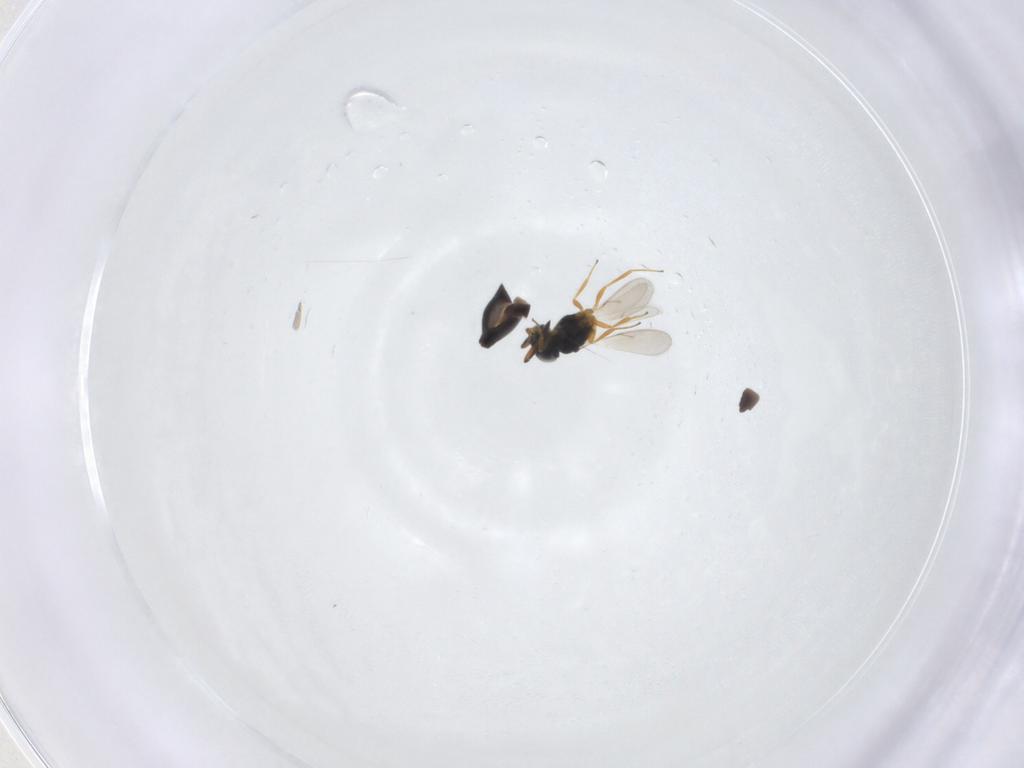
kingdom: Animalia
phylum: Arthropoda
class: Insecta
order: Hymenoptera
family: Scelionidae
